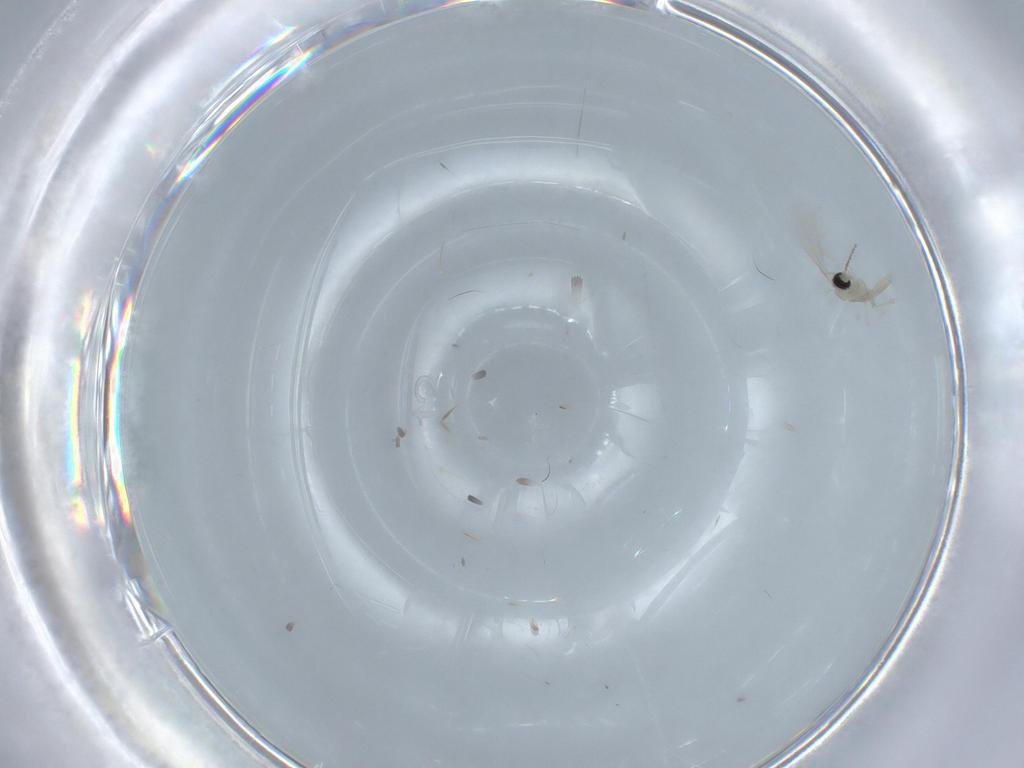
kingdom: Animalia
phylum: Arthropoda
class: Insecta
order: Diptera
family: Cecidomyiidae
